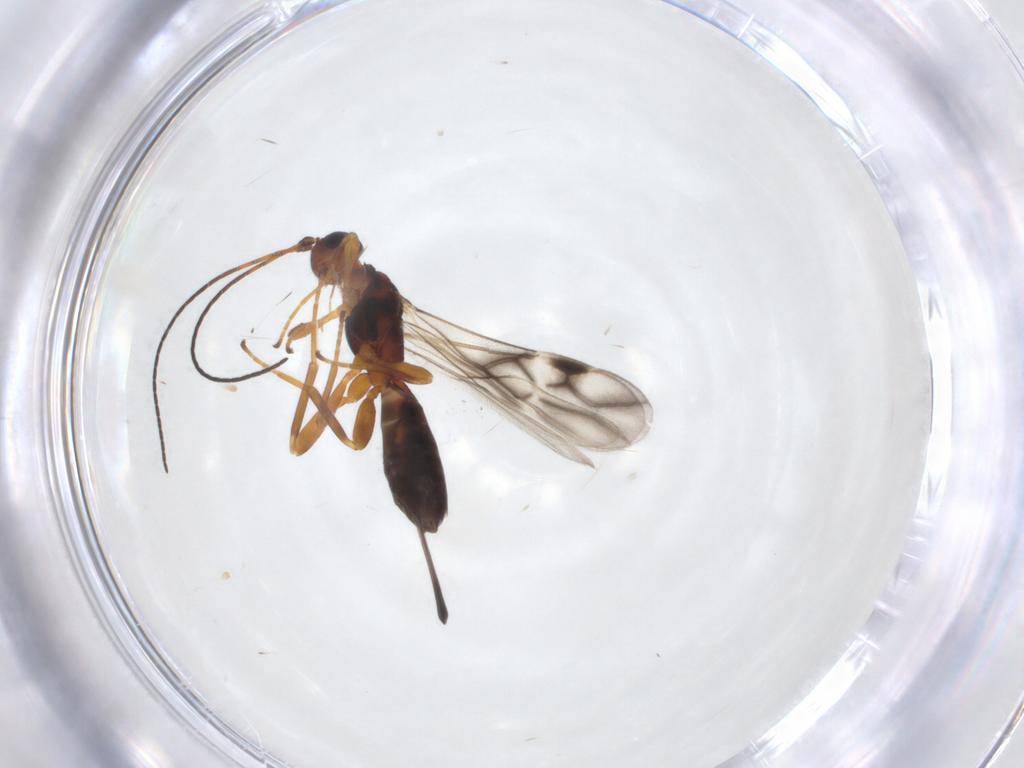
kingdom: Animalia
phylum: Arthropoda
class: Insecta
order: Hymenoptera
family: Braconidae
